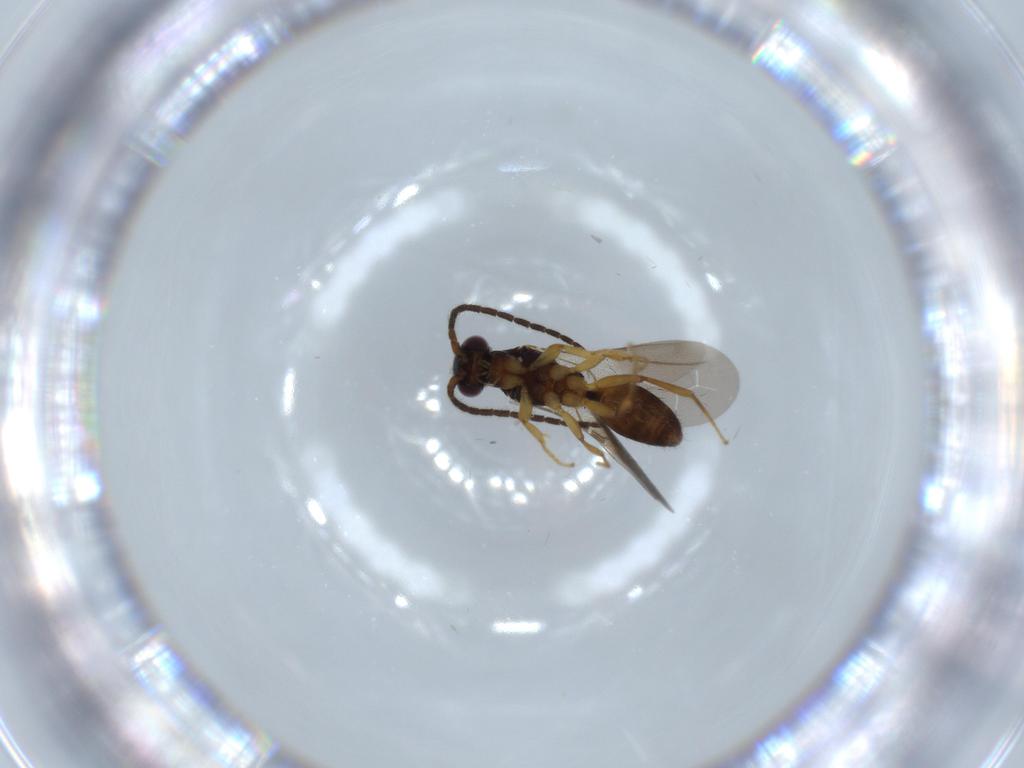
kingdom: Animalia
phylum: Arthropoda
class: Insecta
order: Hymenoptera
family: Bethylidae
